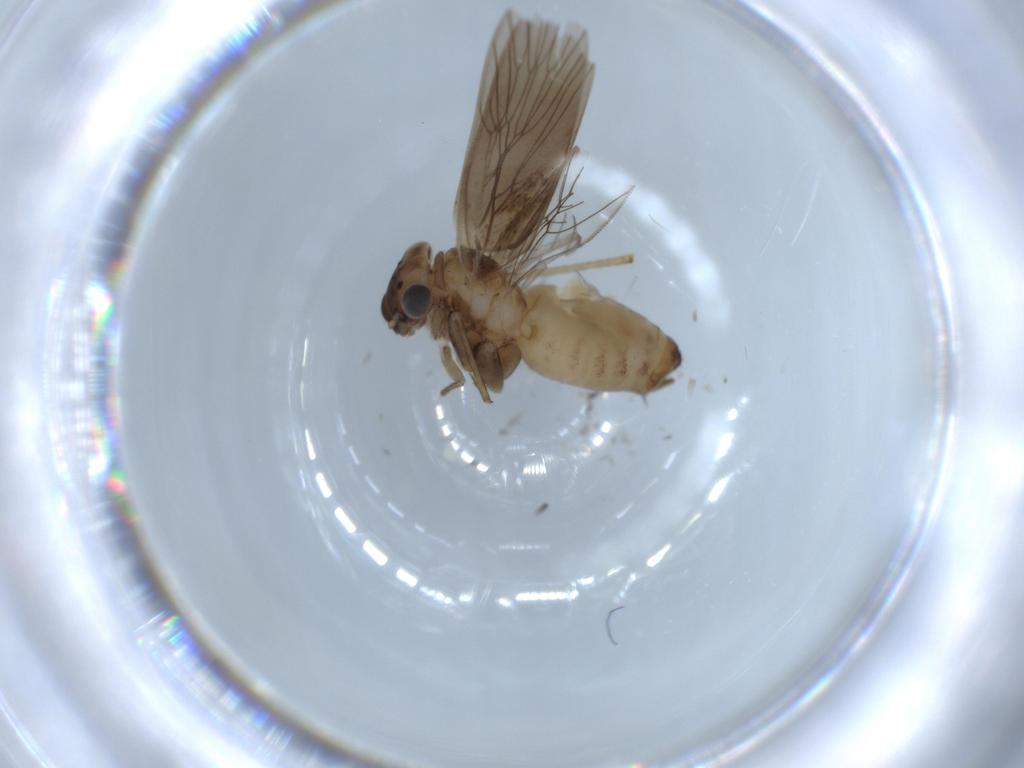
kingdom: Animalia
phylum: Arthropoda
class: Insecta
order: Psocodea
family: Lepidopsocidae
